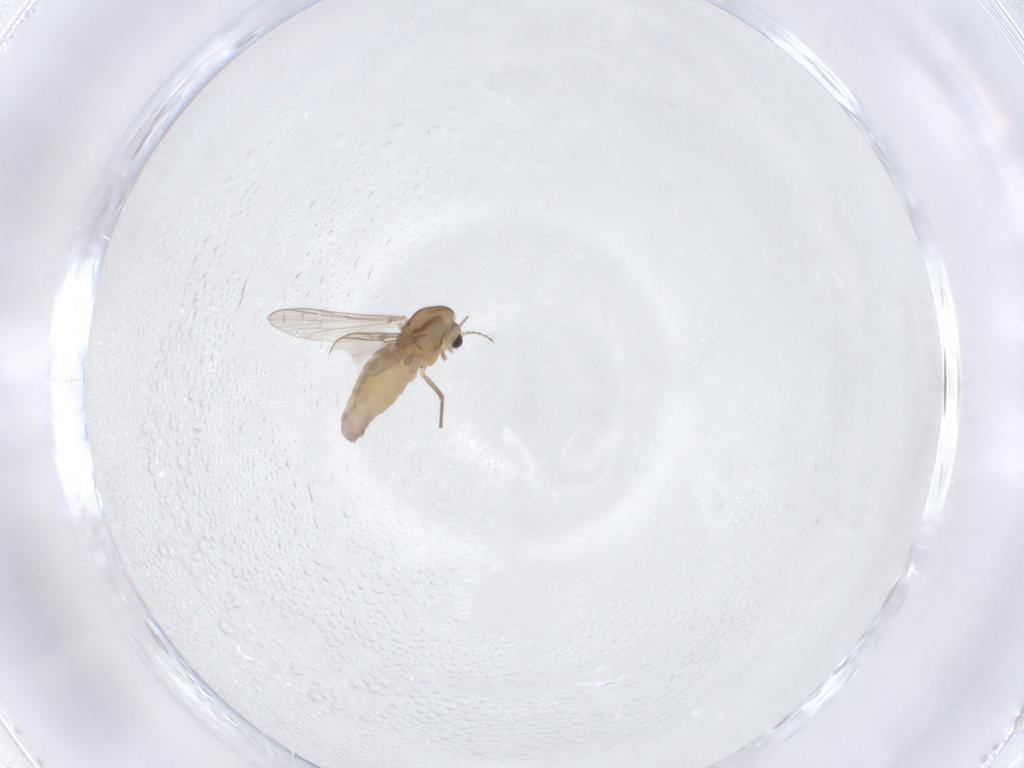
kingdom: Animalia
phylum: Arthropoda
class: Insecta
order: Diptera
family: Chironomidae
